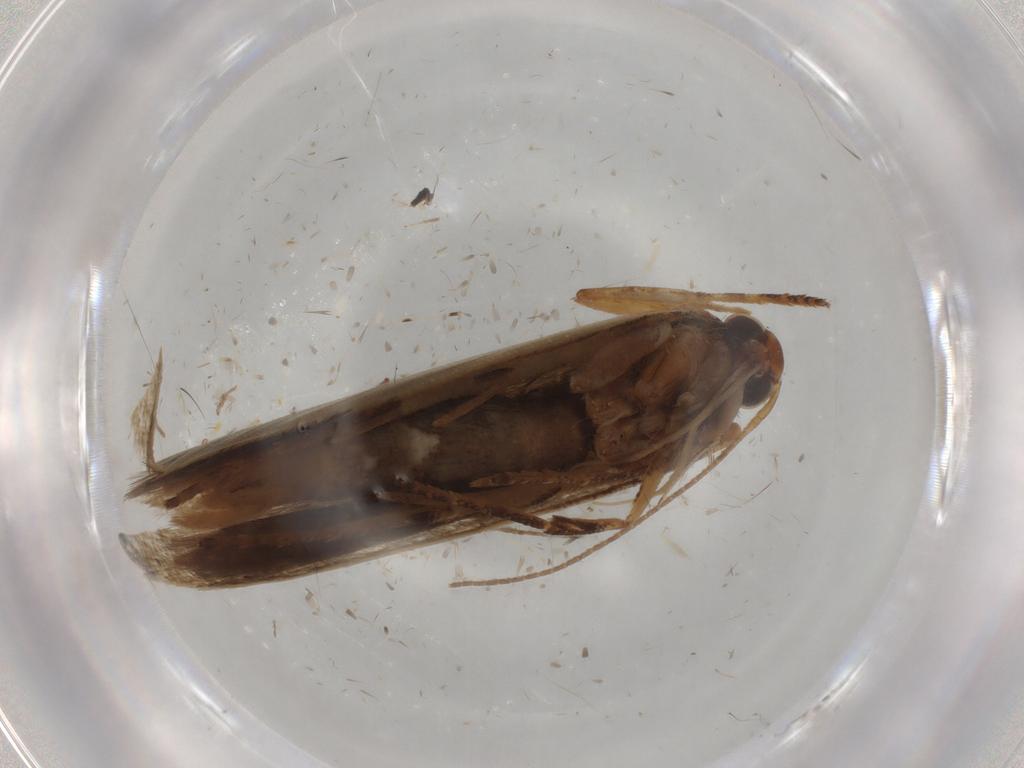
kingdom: Animalia
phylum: Arthropoda
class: Insecta
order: Lepidoptera
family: Gelechiidae
